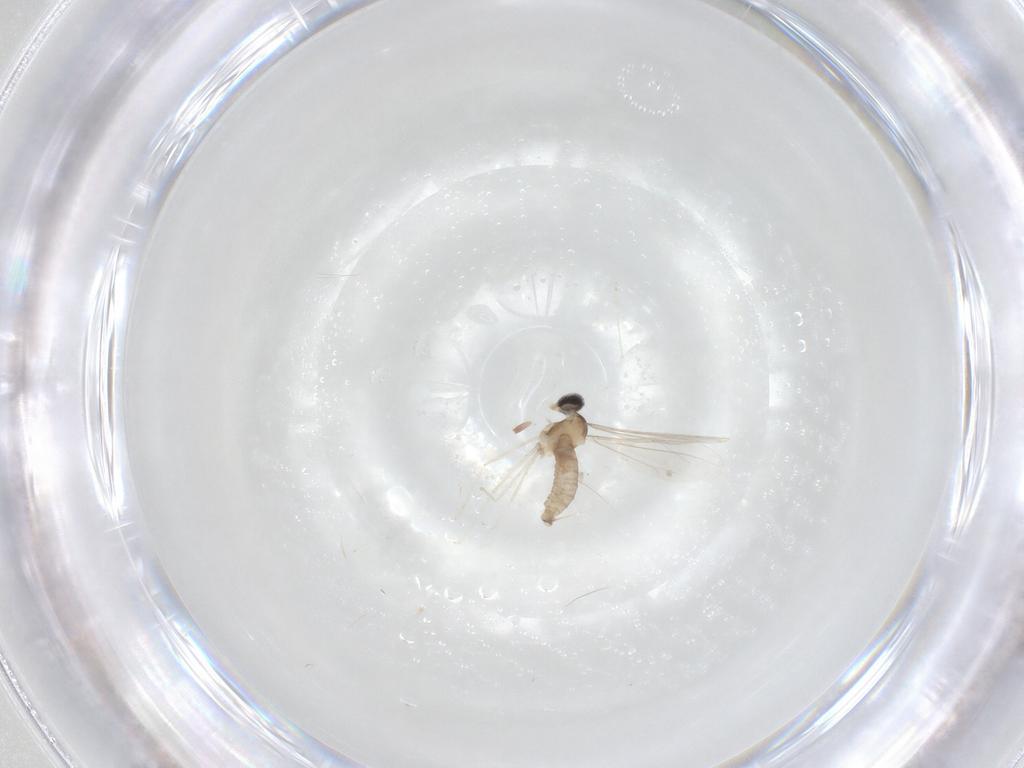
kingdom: Animalia
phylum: Arthropoda
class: Insecta
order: Diptera
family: Cecidomyiidae
